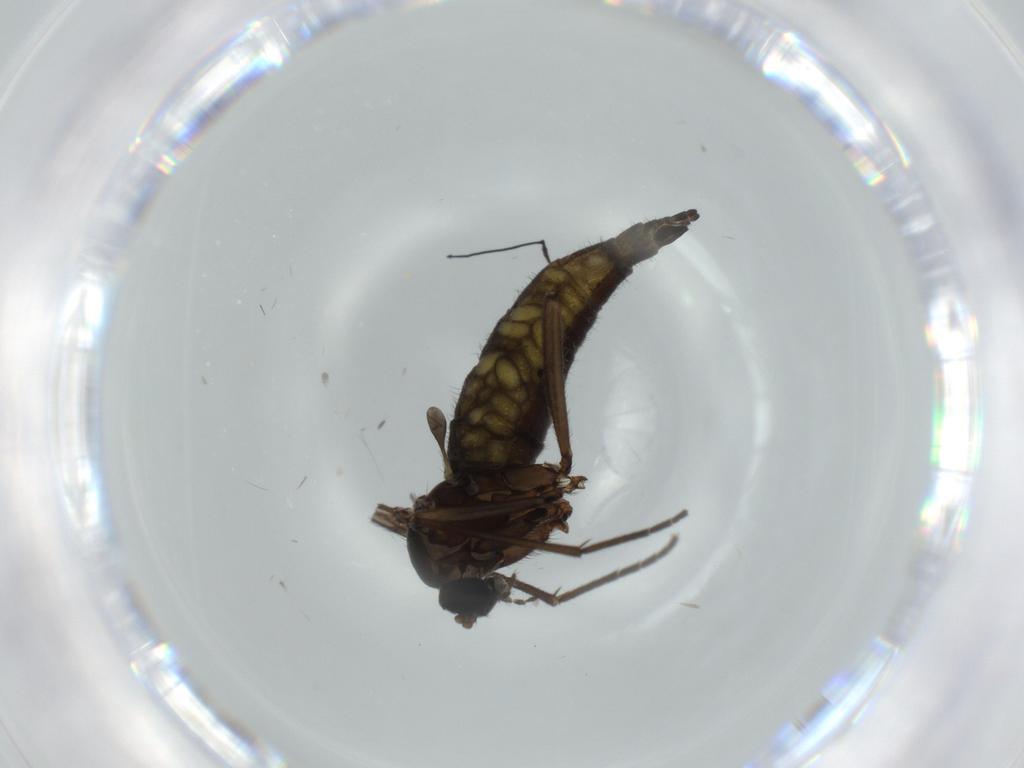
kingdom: Animalia
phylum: Arthropoda
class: Insecta
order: Diptera
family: Sciaridae
